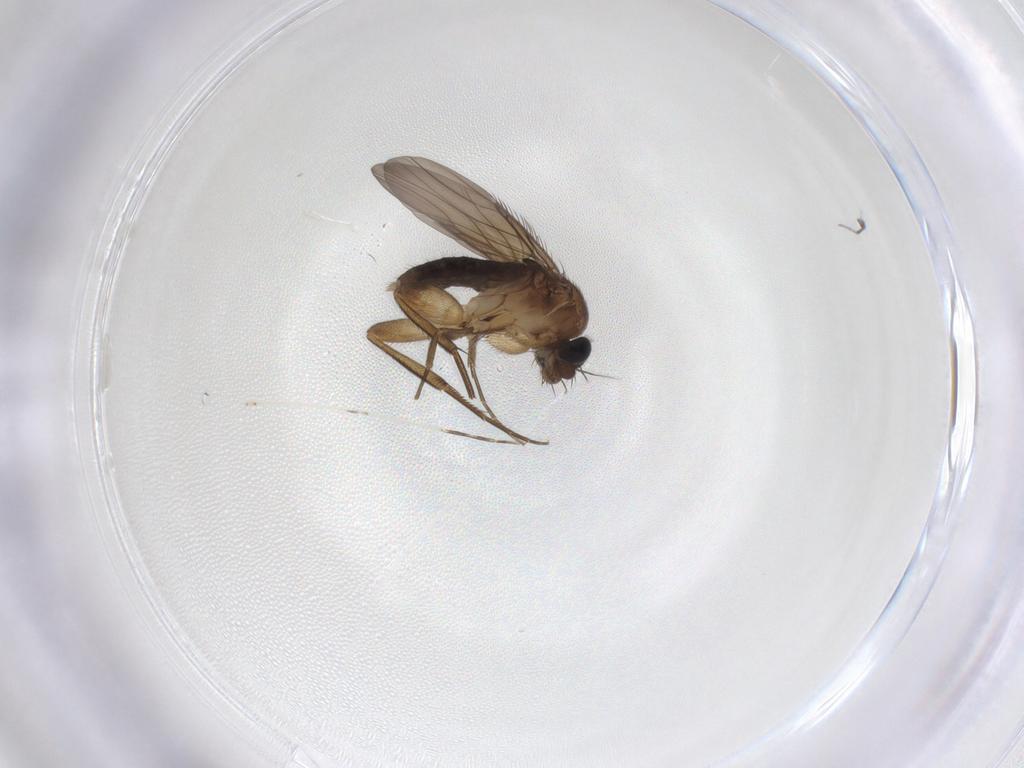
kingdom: Animalia
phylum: Arthropoda
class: Insecta
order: Diptera
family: Phoridae
